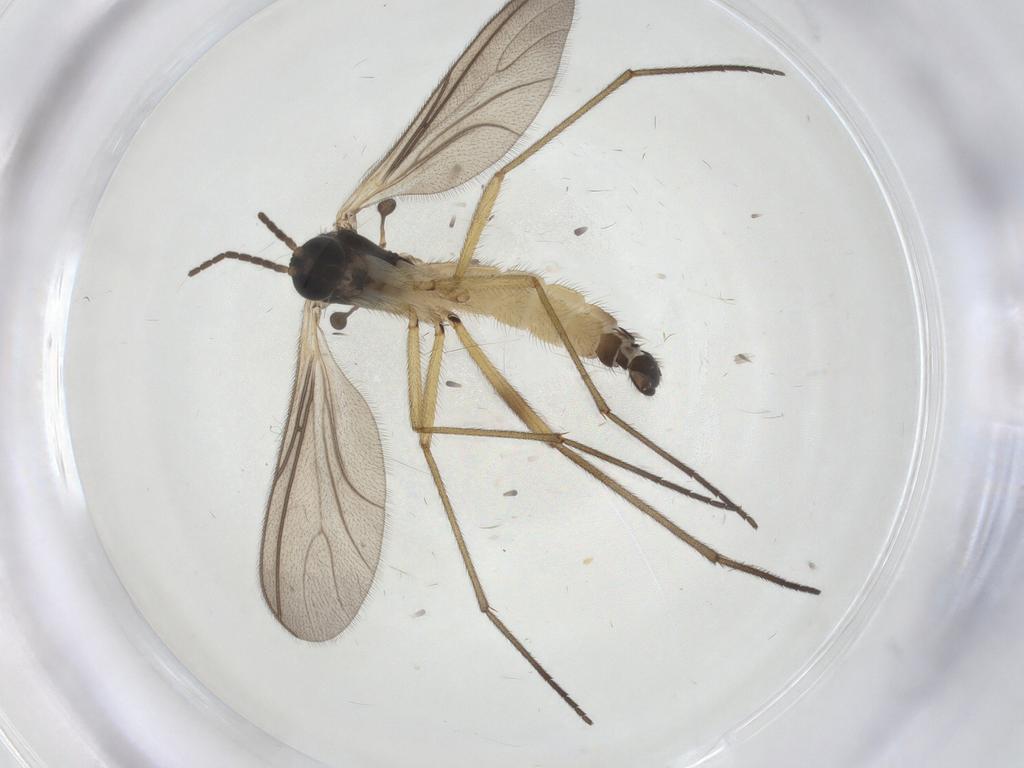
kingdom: Animalia
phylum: Arthropoda
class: Insecta
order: Diptera
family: Sciaridae
